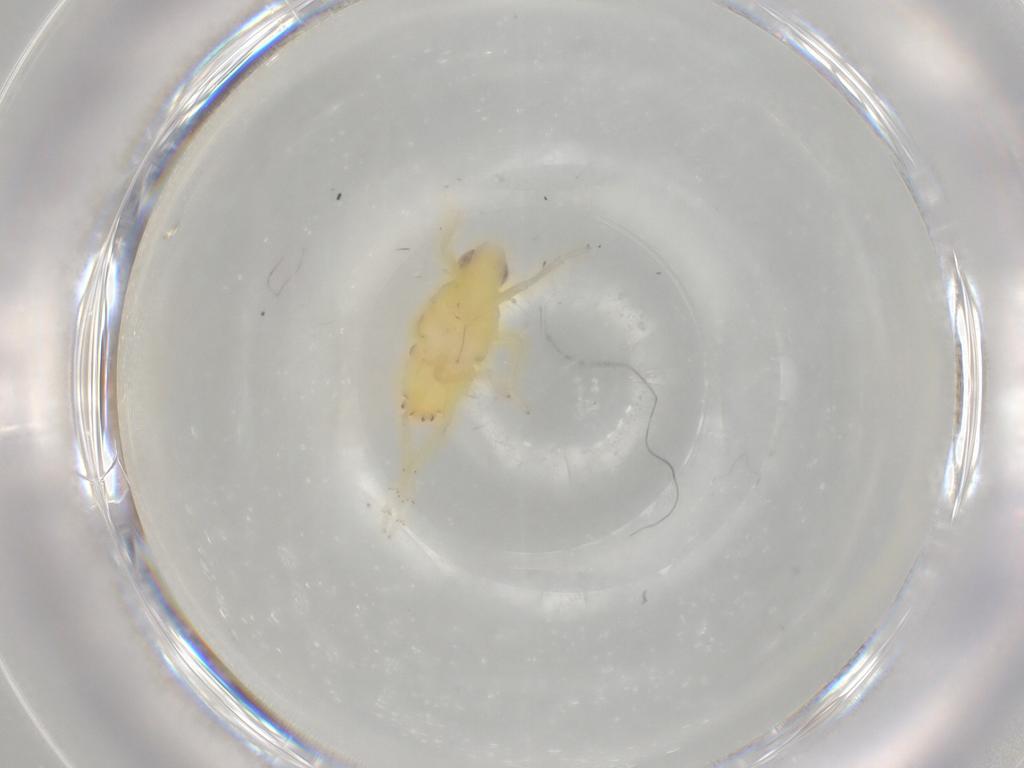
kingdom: Animalia
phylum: Arthropoda
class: Insecta
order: Hemiptera
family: Tropiduchidae
